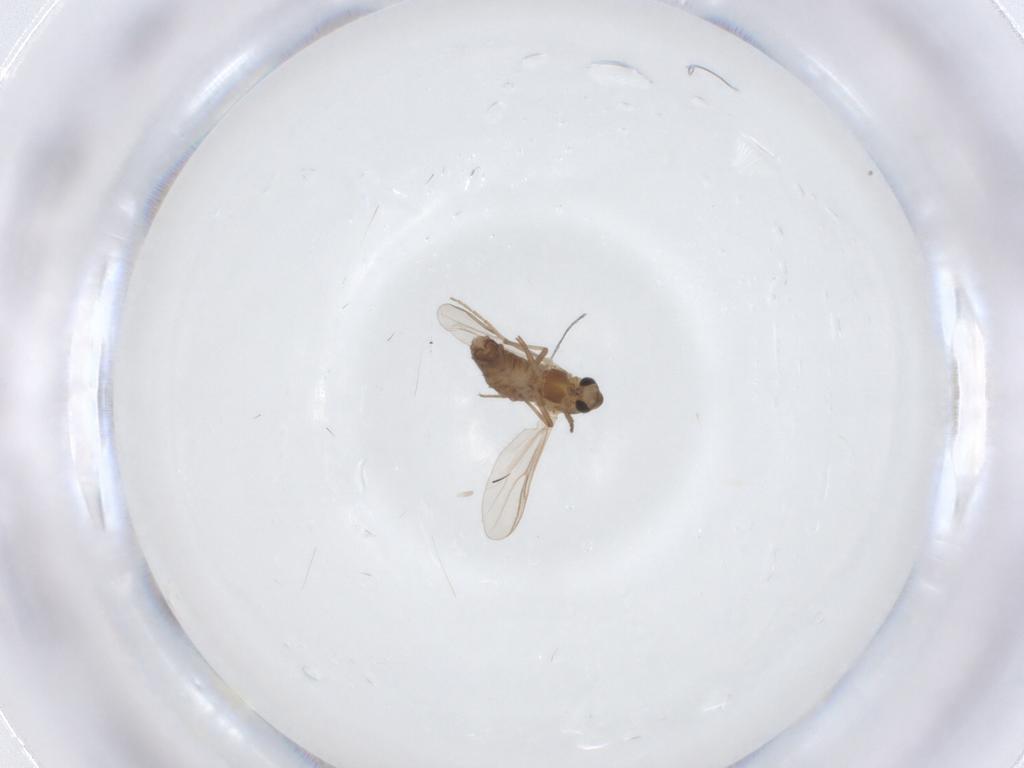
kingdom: Animalia
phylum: Arthropoda
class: Insecta
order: Diptera
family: Chironomidae
